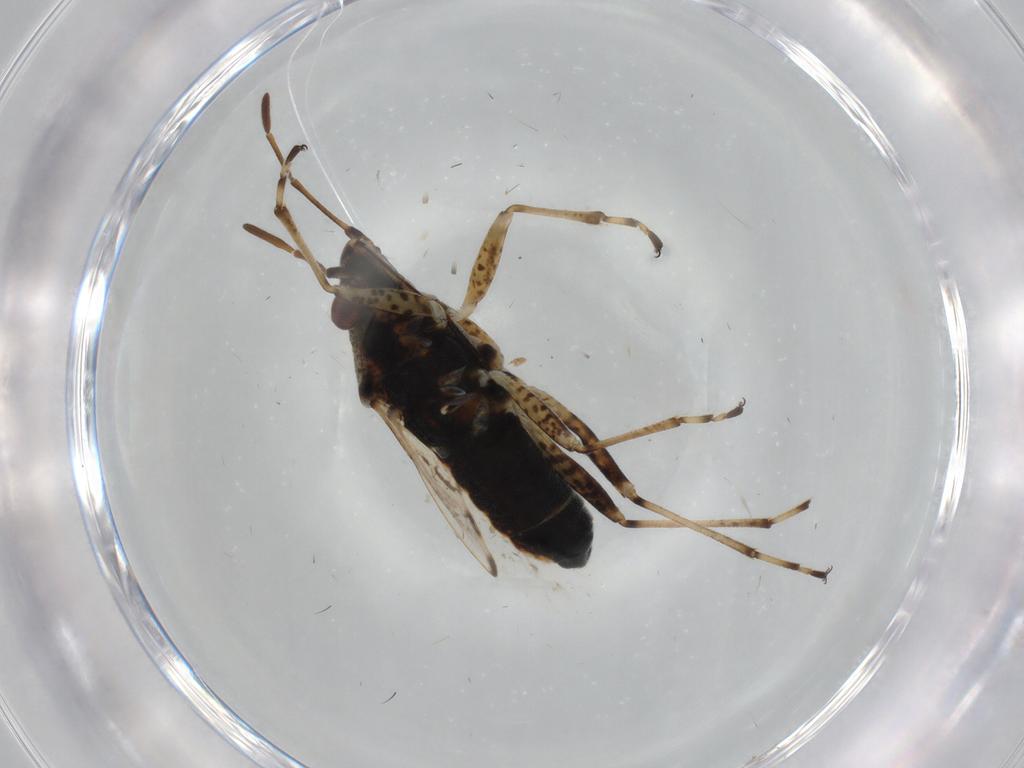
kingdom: Animalia
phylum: Arthropoda
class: Insecta
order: Hemiptera
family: Lygaeidae
